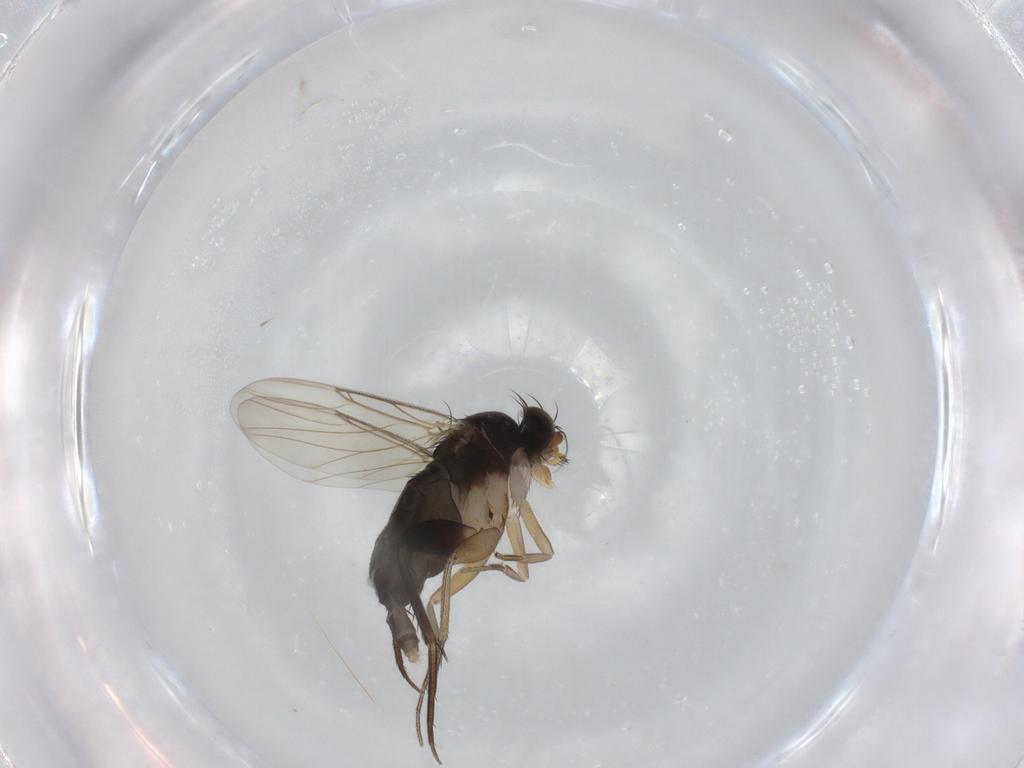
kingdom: Animalia
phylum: Arthropoda
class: Insecta
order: Diptera
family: Phoridae
